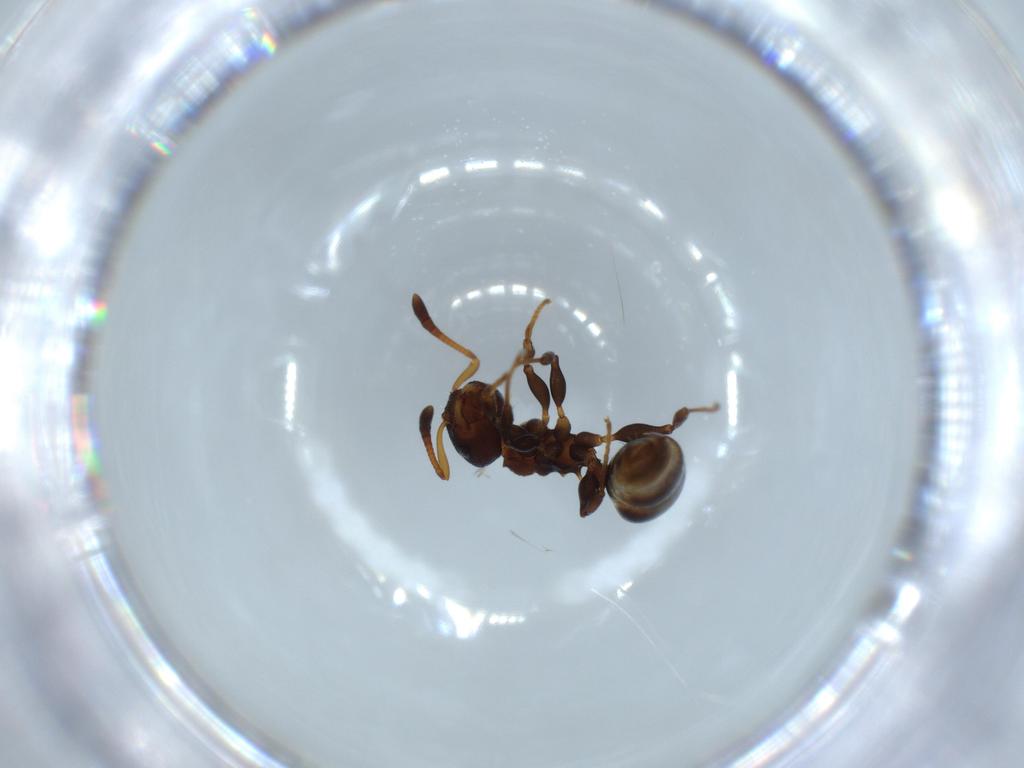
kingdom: Animalia
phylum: Arthropoda
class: Insecta
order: Hymenoptera
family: Formicidae
